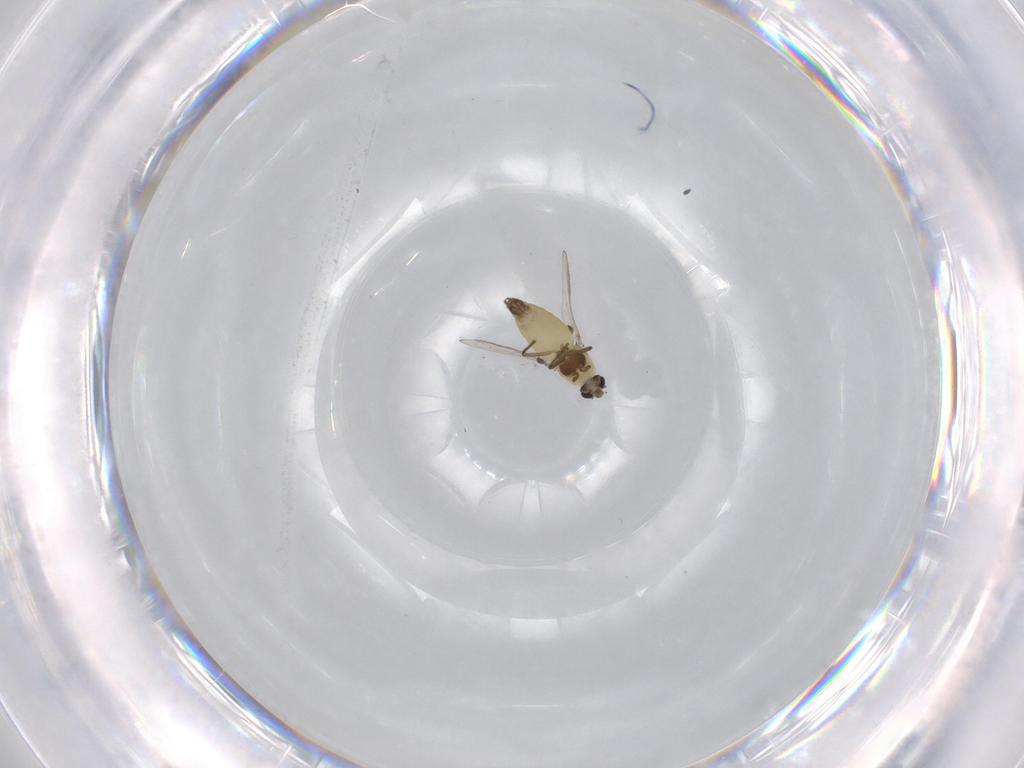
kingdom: Animalia
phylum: Arthropoda
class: Insecta
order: Diptera
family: Chironomidae
